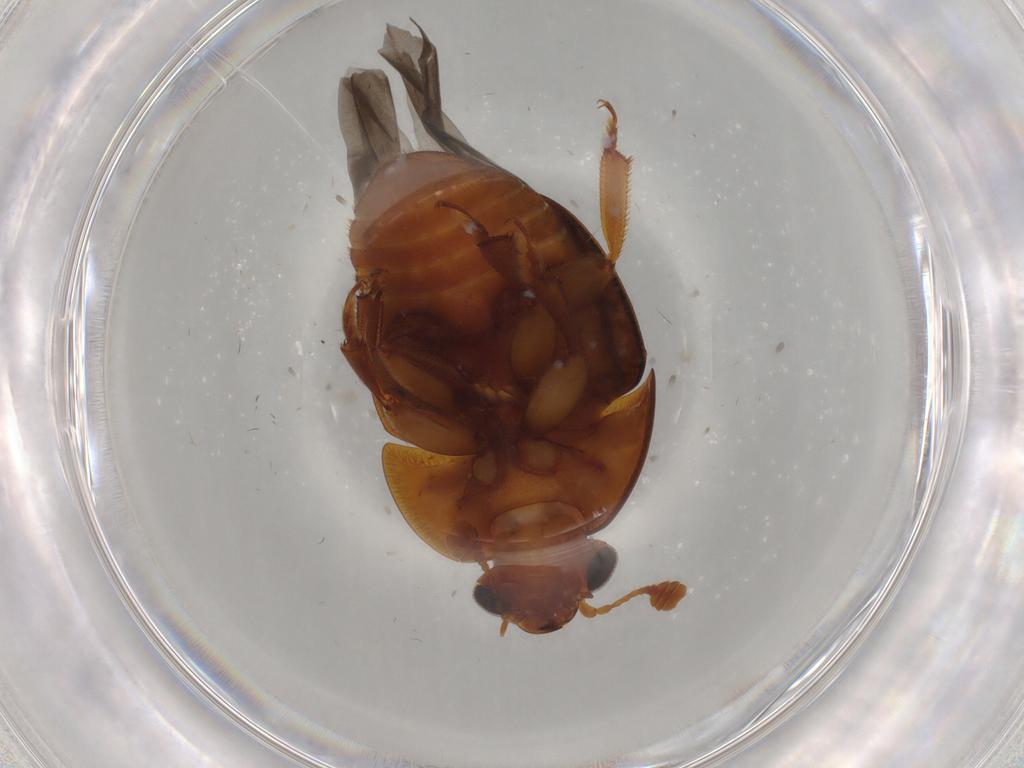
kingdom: Animalia
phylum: Arthropoda
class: Insecta
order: Coleoptera
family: Nitidulidae
